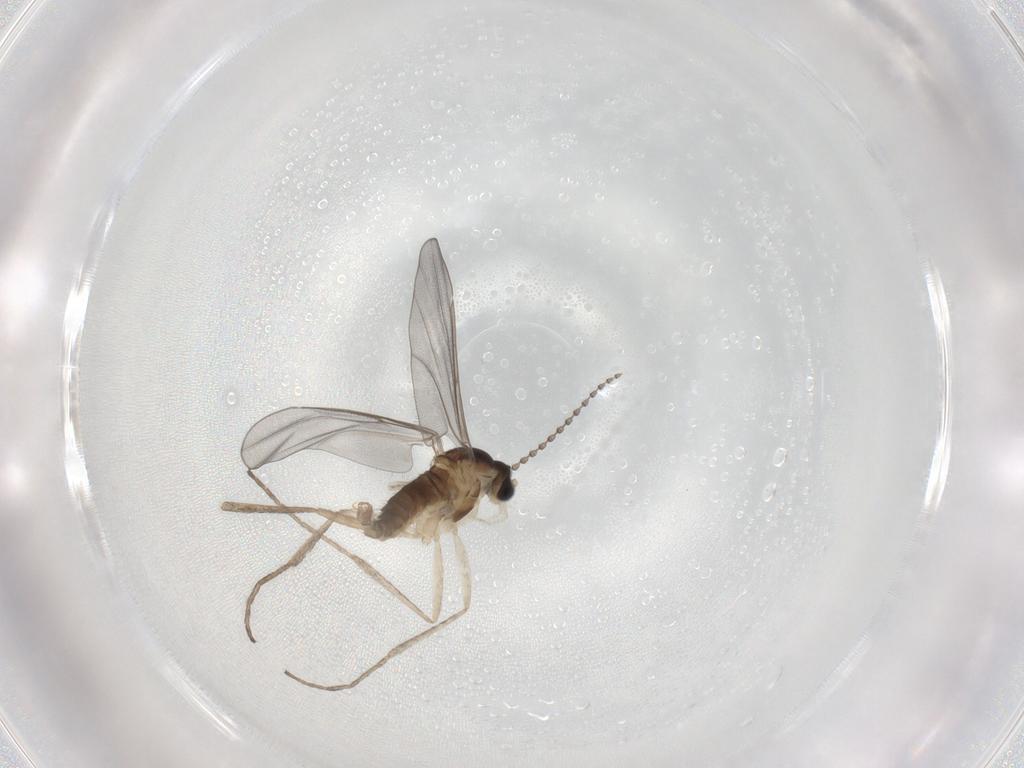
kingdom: Animalia
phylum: Arthropoda
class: Insecta
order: Diptera
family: Cecidomyiidae
